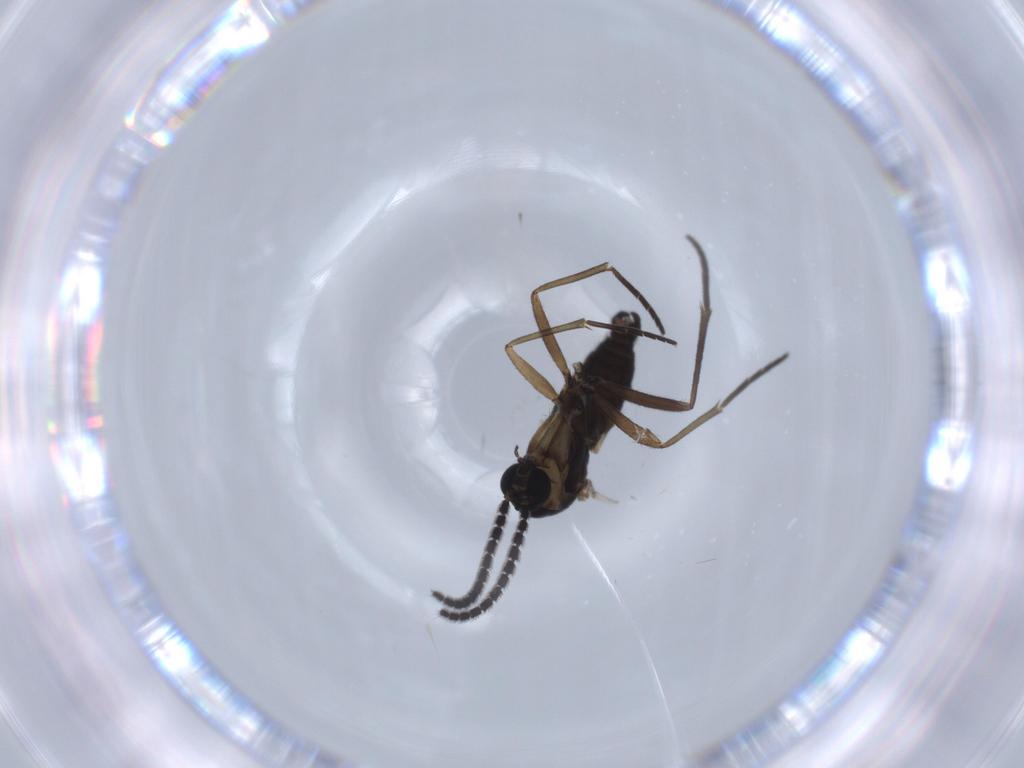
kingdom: Animalia
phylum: Arthropoda
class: Insecta
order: Diptera
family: Sciaridae
